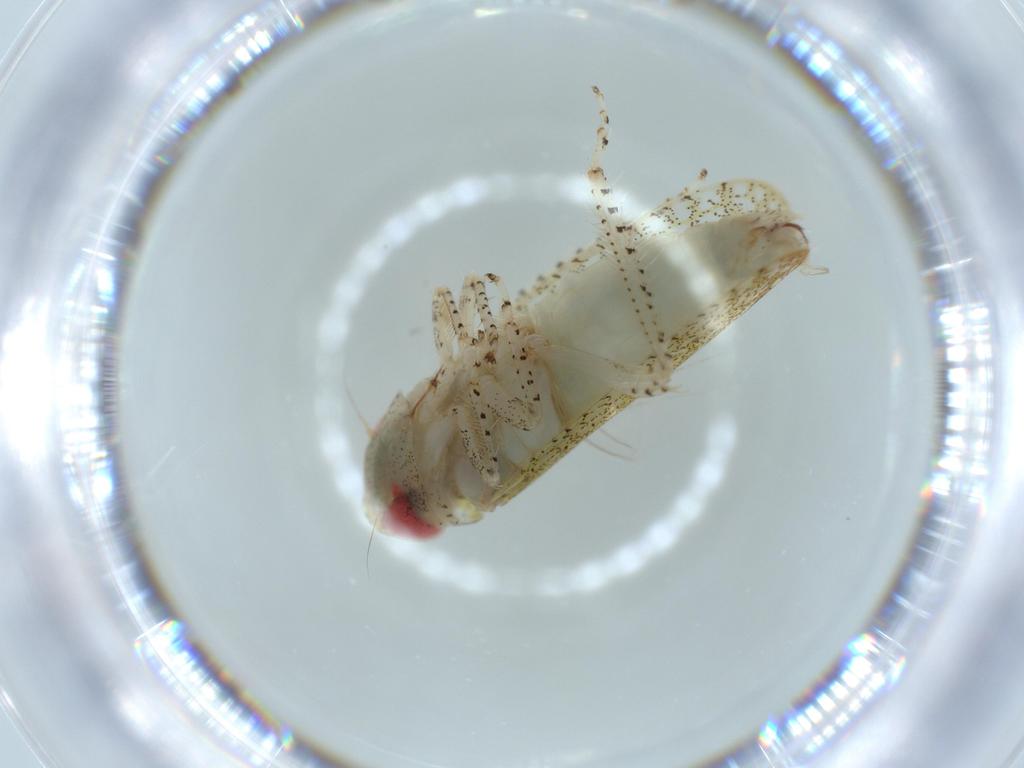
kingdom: Animalia
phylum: Arthropoda
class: Insecta
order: Hemiptera
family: Cicadellidae
